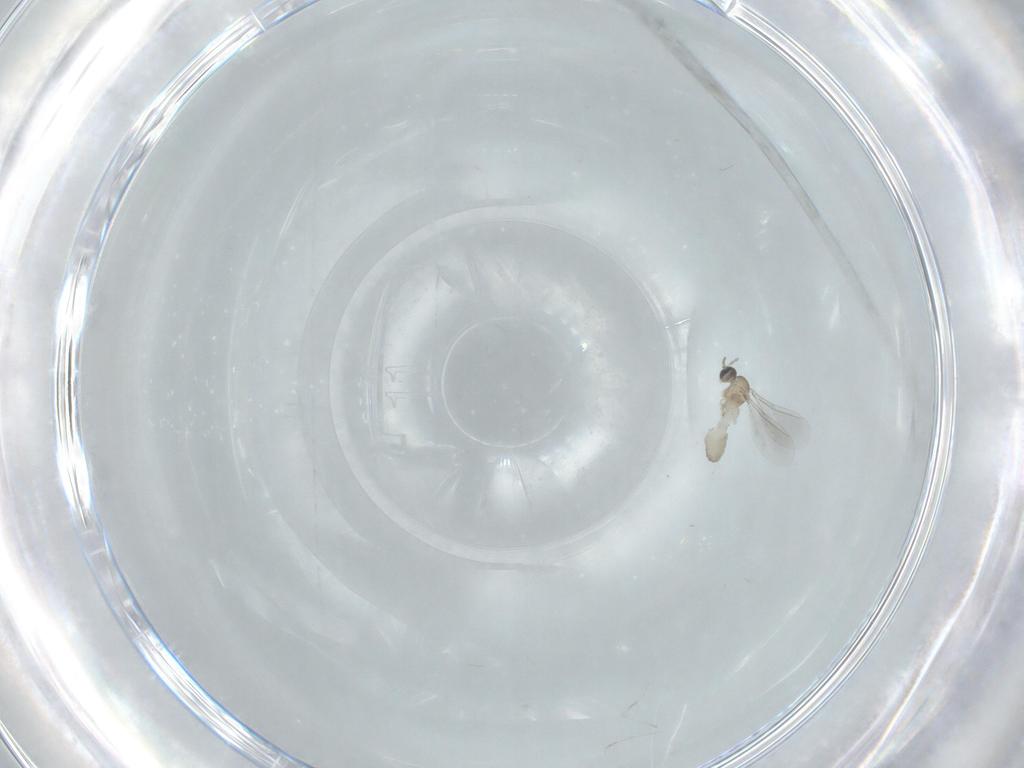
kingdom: Animalia
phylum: Arthropoda
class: Insecta
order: Diptera
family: Cecidomyiidae
